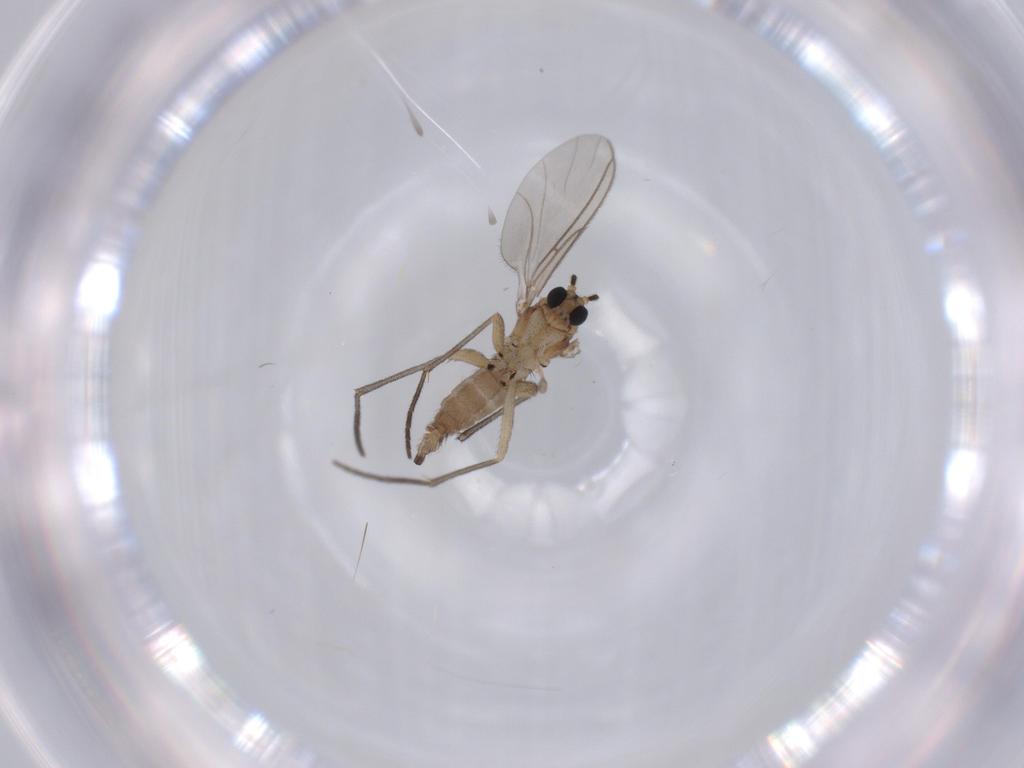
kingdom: Animalia
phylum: Arthropoda
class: Insecta
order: Diptera
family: Sciaridae
